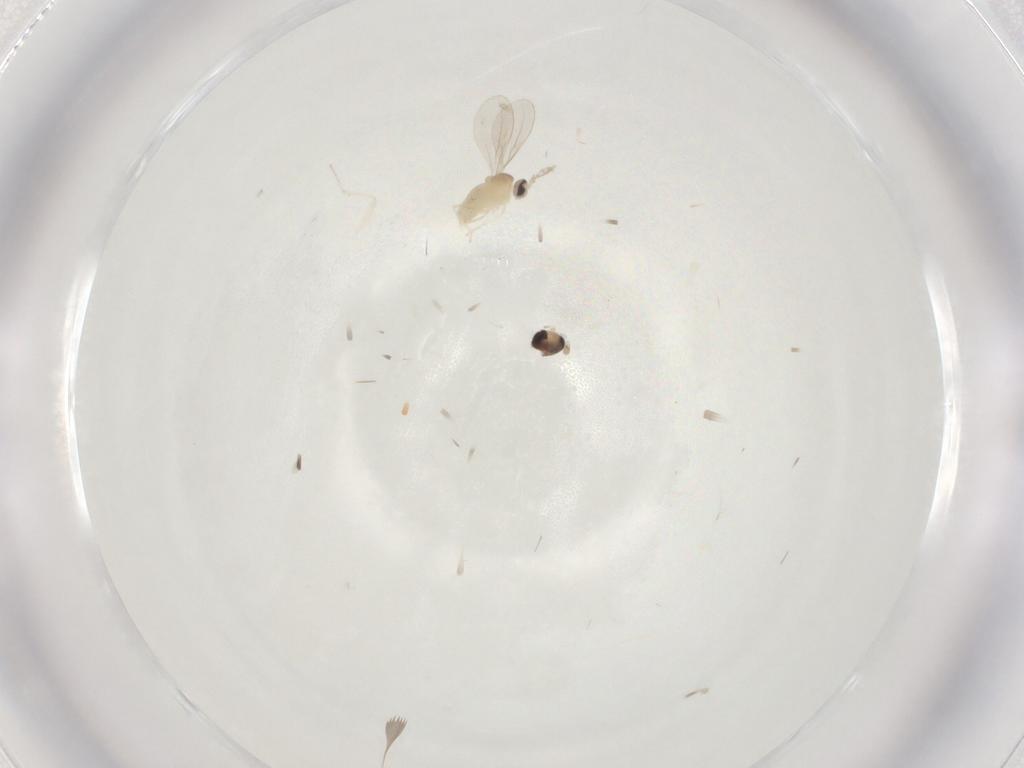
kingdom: Animalia
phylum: Arthropoda
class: Insecta
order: Diptera
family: Cecidomyiidae
